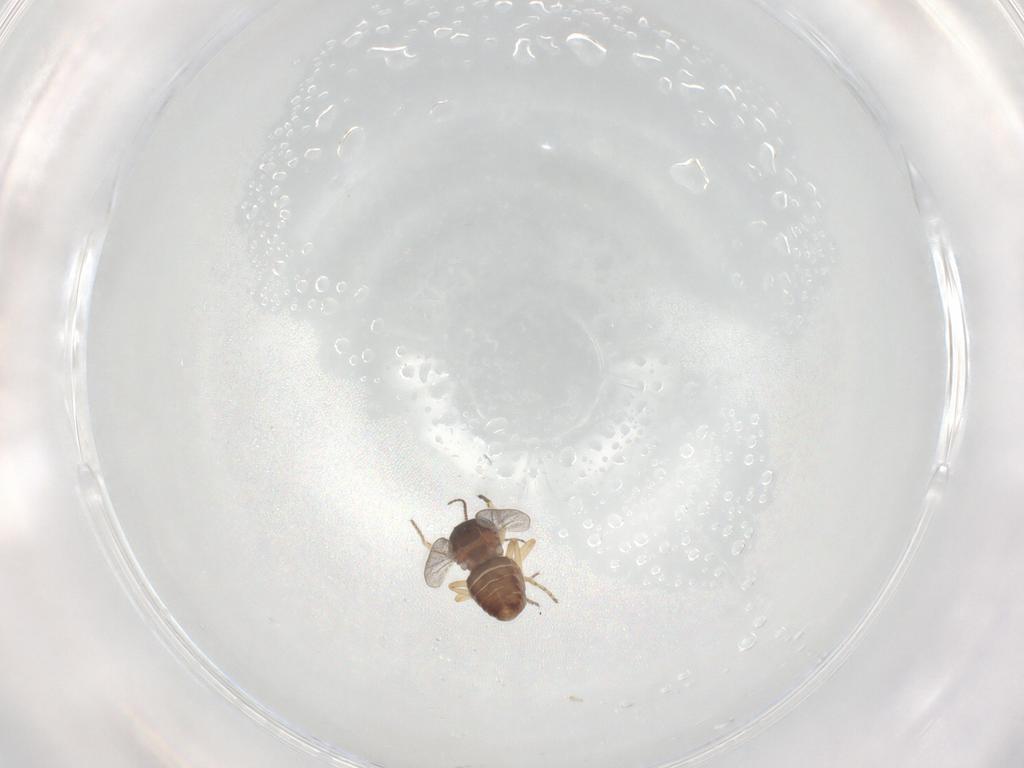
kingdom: Animalia
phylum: Arthropoda
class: Insecta
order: Diptera
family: Ceratopogonidae
